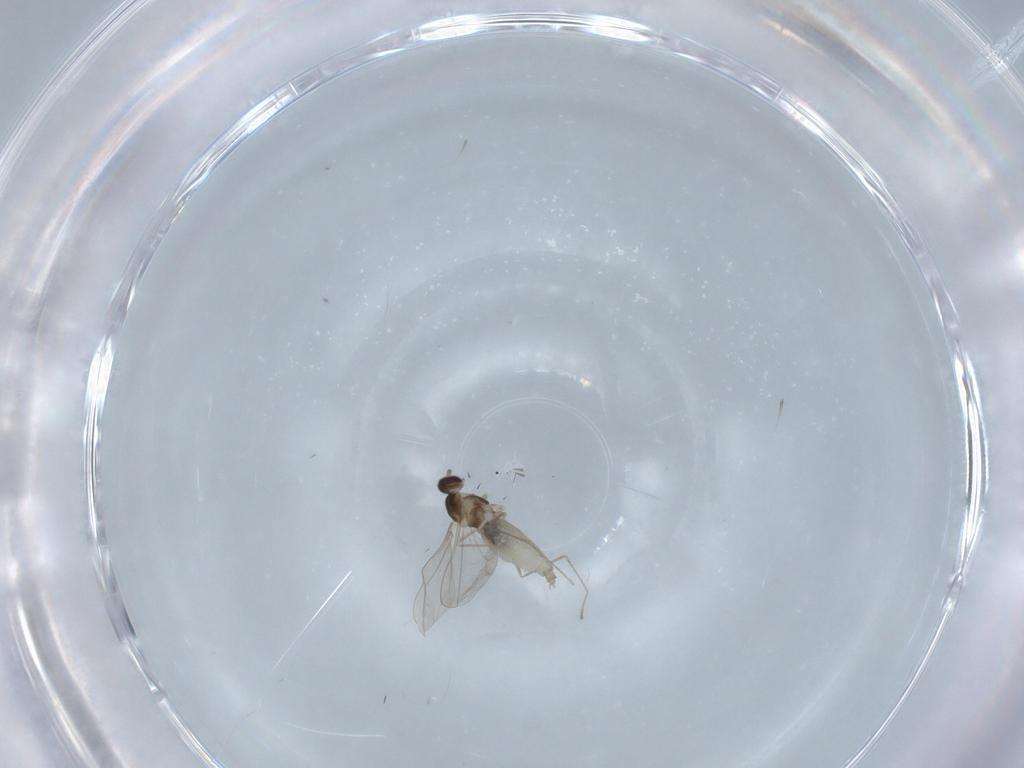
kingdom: Animalia
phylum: Arthropoda
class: Insecta
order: Diptera
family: Cecidomyiidae
